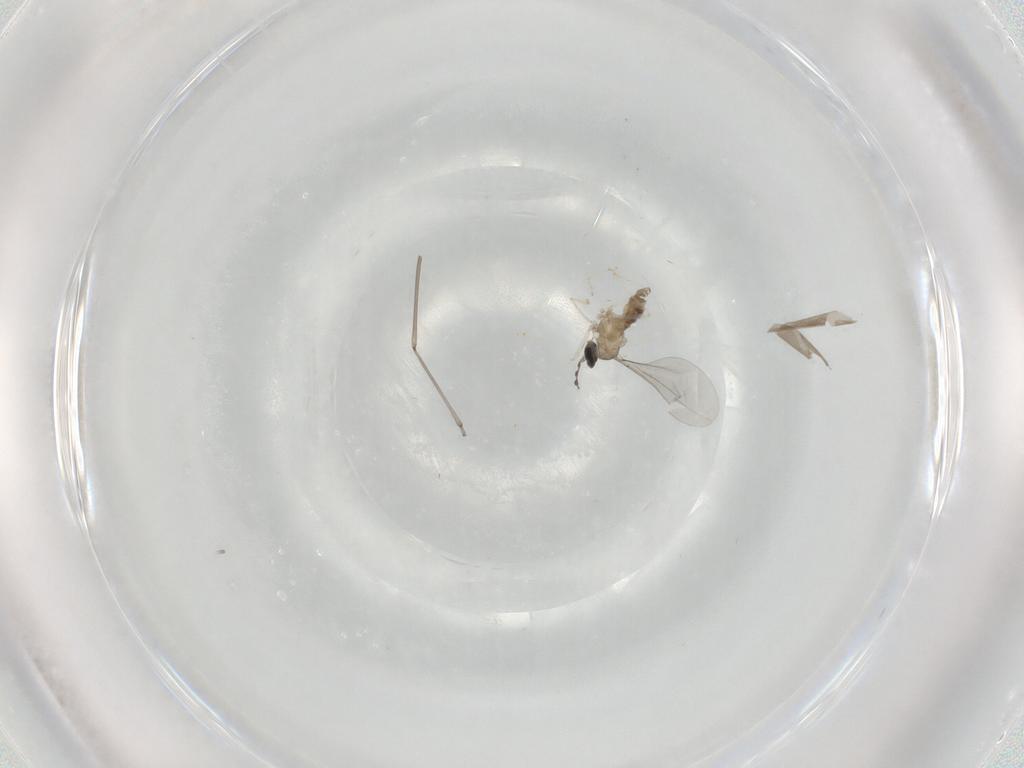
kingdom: Animalia
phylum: Arthropoda
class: Insecta
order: Diptera
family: Cecidomyiidae
